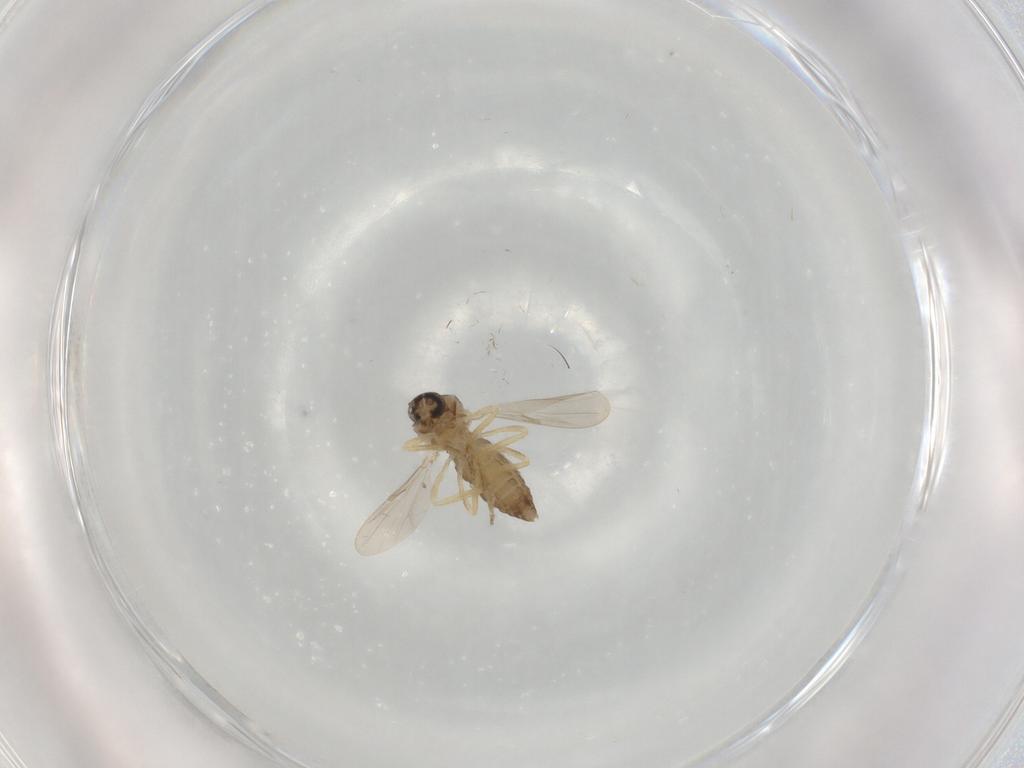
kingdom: Animalia
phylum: Arthropoda
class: Insecta
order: Diptera
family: Ceratopogonidae
